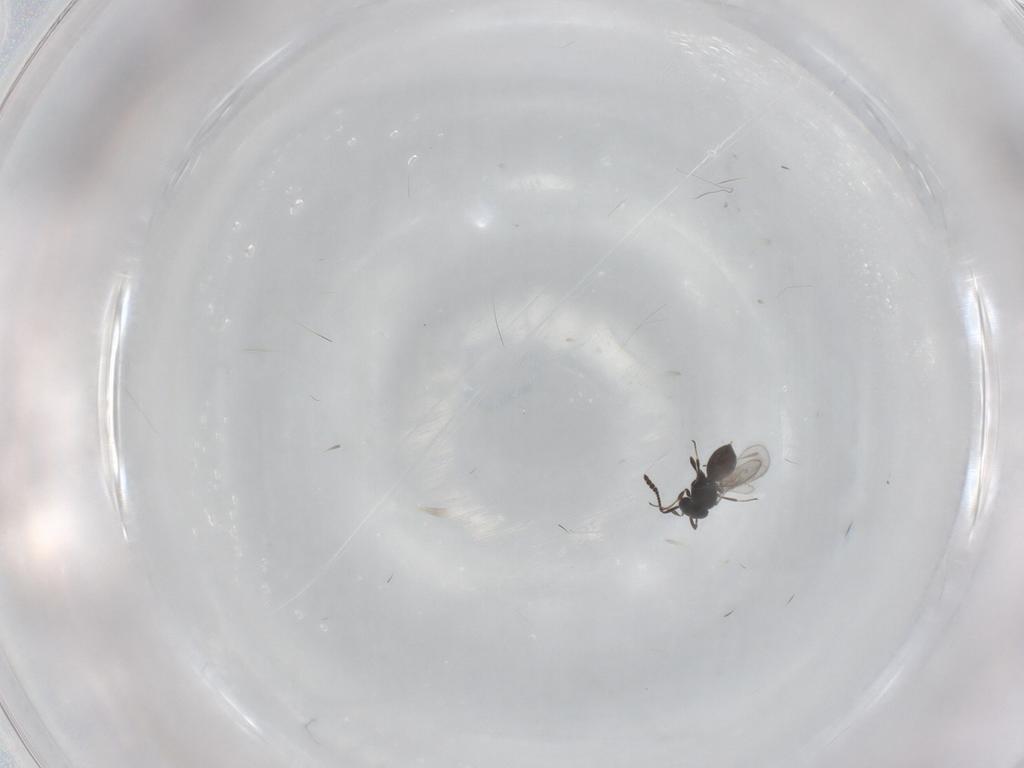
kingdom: Animalia
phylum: Arthropoda
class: Insecta
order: Hymenoptera
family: Scelionidae
